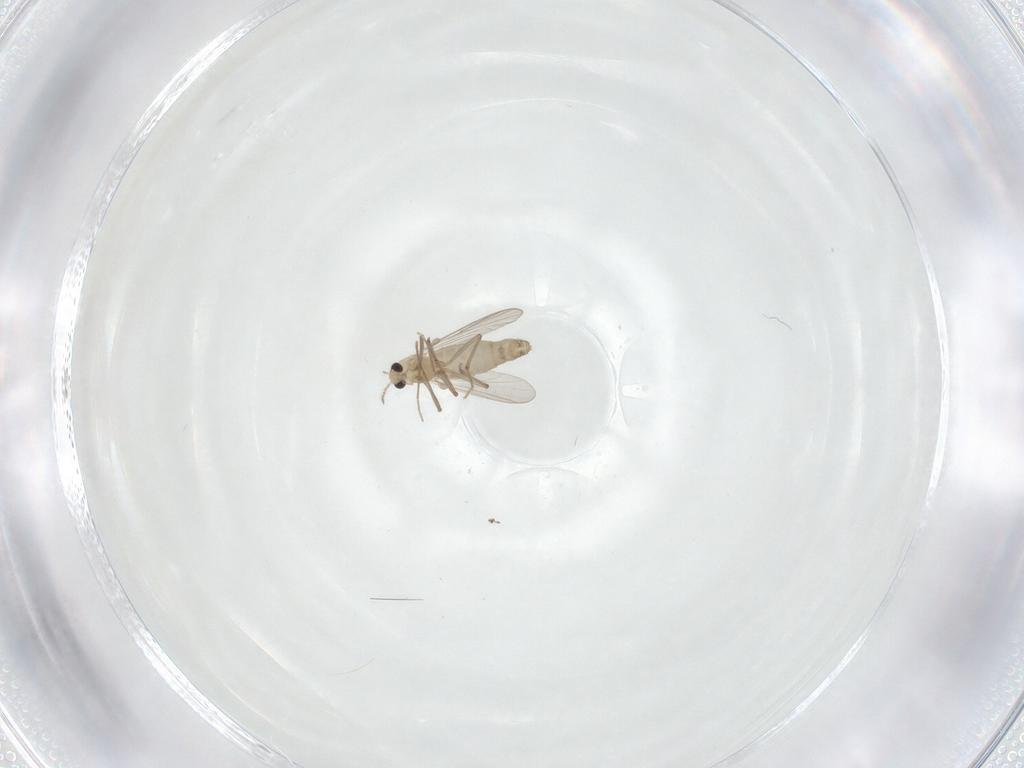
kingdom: Animalia
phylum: Arthropoda
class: Insecta
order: Diptera
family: Chironomidae
